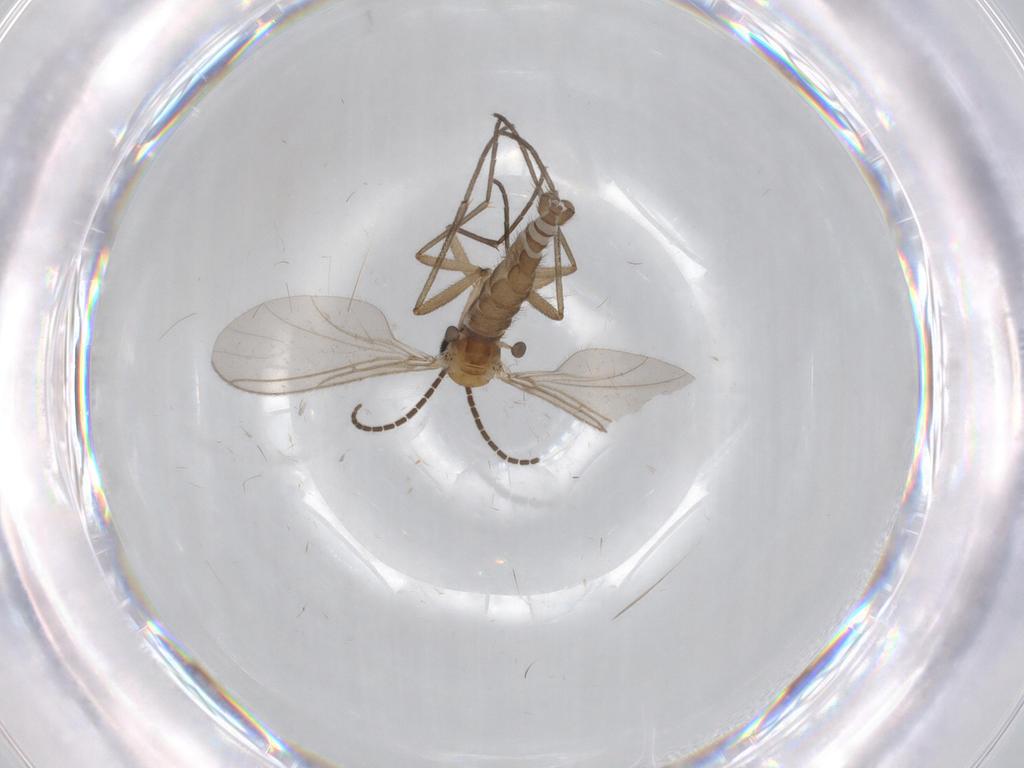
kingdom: Animalia
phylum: Arthropoda
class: Insecta
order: Diptera
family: Sciaridae
